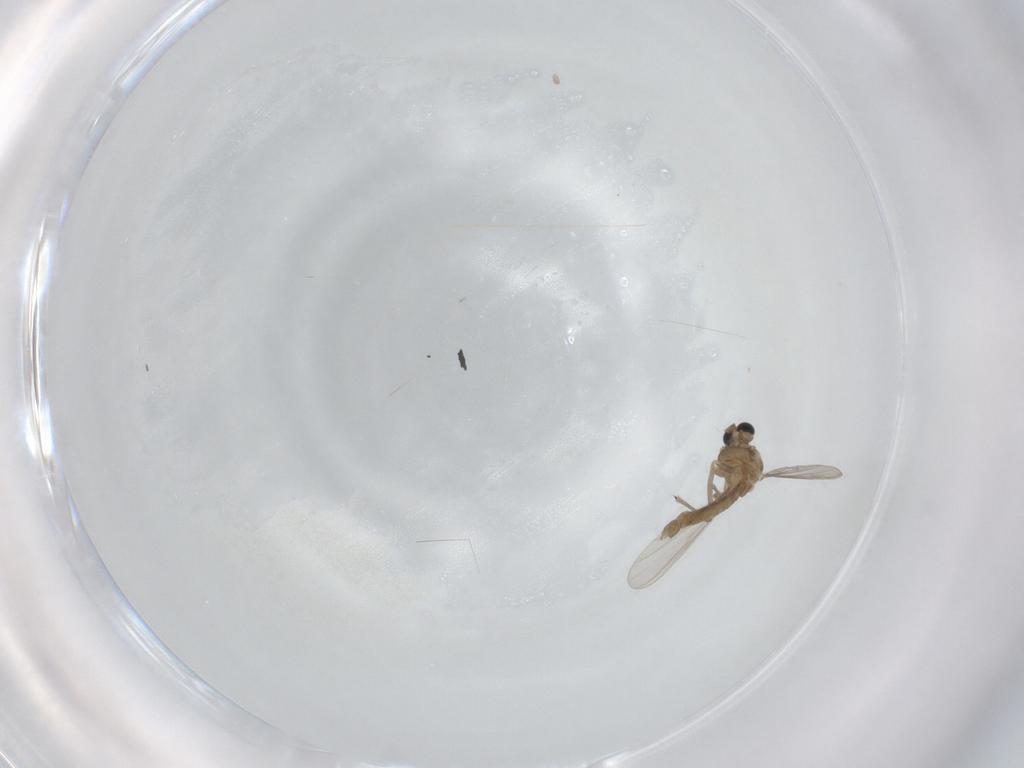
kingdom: Animalia
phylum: Arthropoda
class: Insecta
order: Diptera
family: Chironomidae
